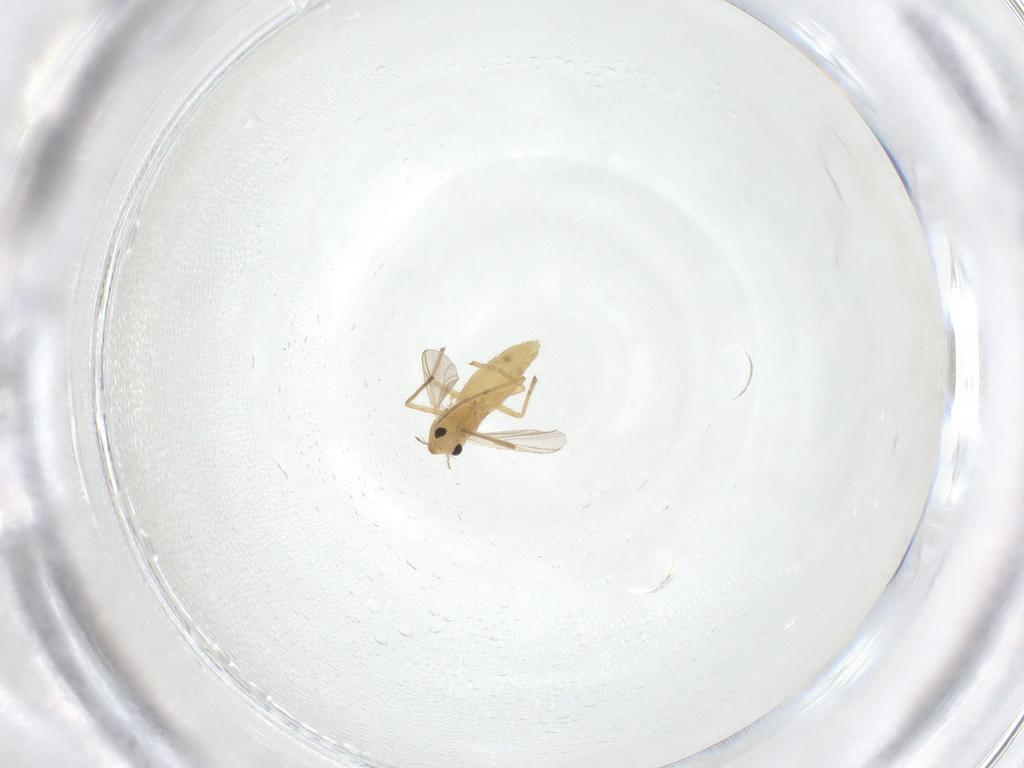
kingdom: Animalia
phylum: Arthropoda
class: Insecta
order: Diptera
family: Chironomidae
